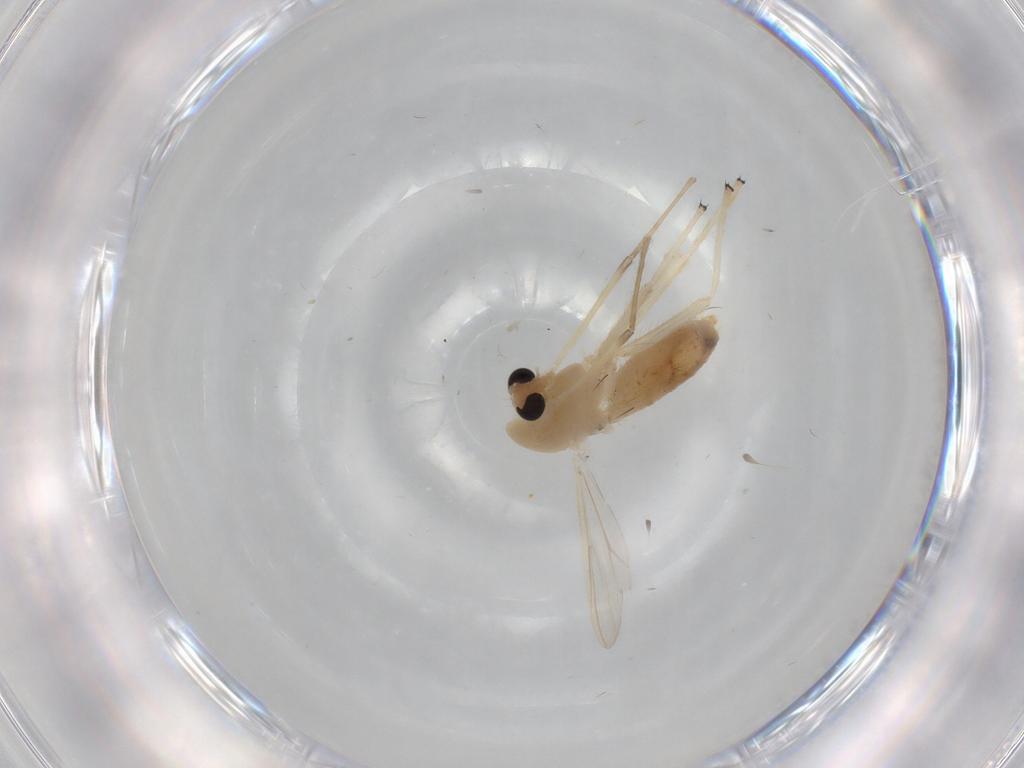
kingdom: Animalia
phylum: Arthropoda
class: Insecta
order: Diptera
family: Chironomidae
